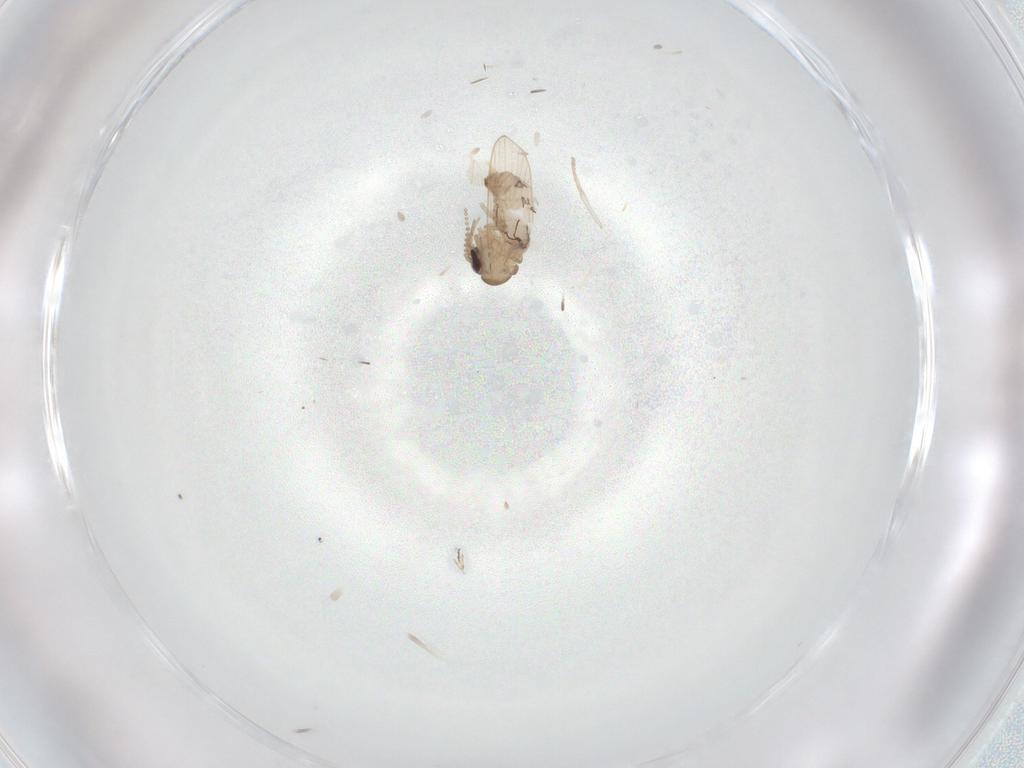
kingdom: Animalia
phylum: Arthropoda
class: Insecta
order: Diptera
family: Psychodidae
